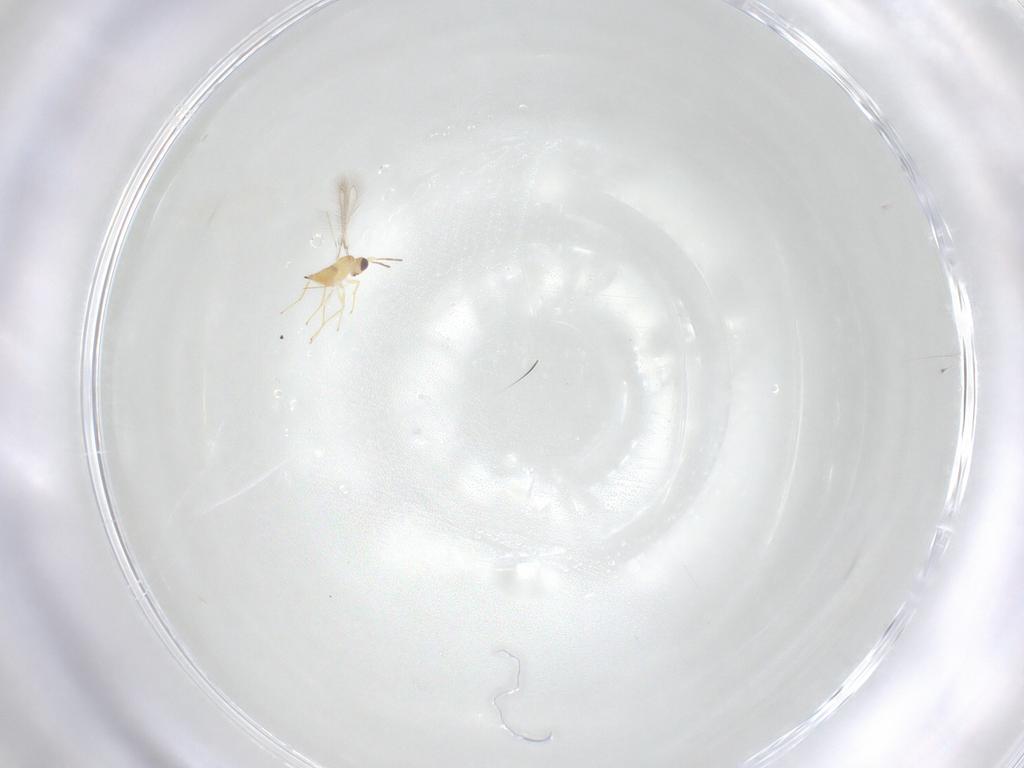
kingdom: Animalia
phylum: Arthropoda
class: Insecta
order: Hymenoptera
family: Mymaridae
